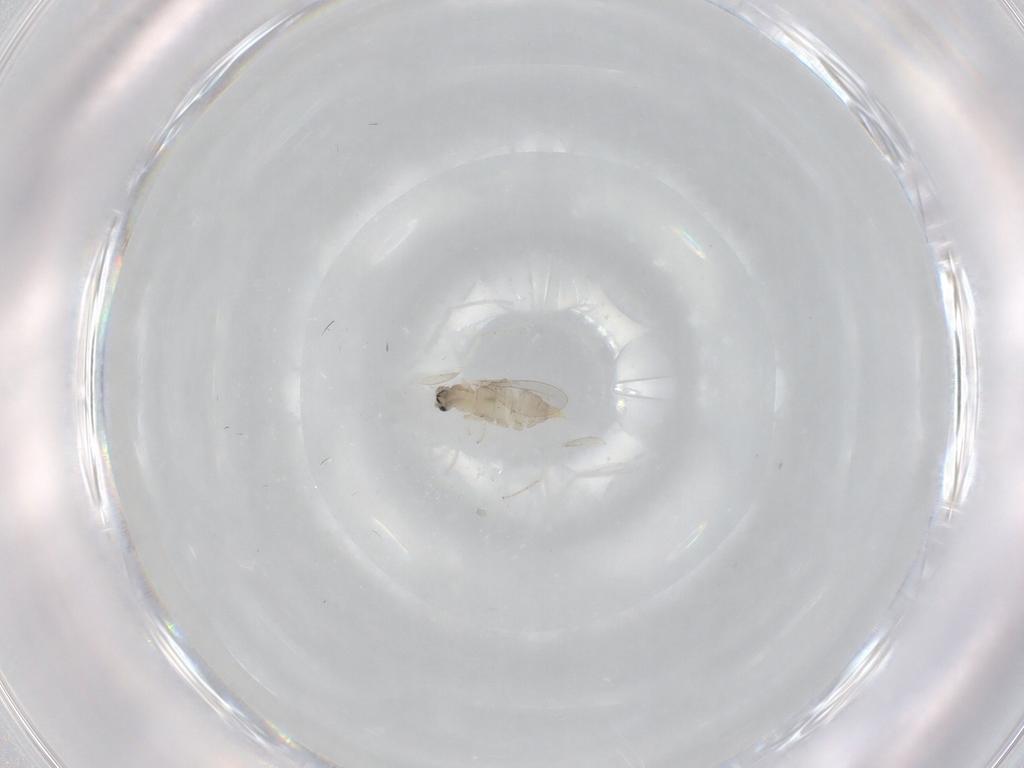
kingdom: Animalia
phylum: Arthropoda
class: Insecta
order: Diptera
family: Cecidomyiidae
